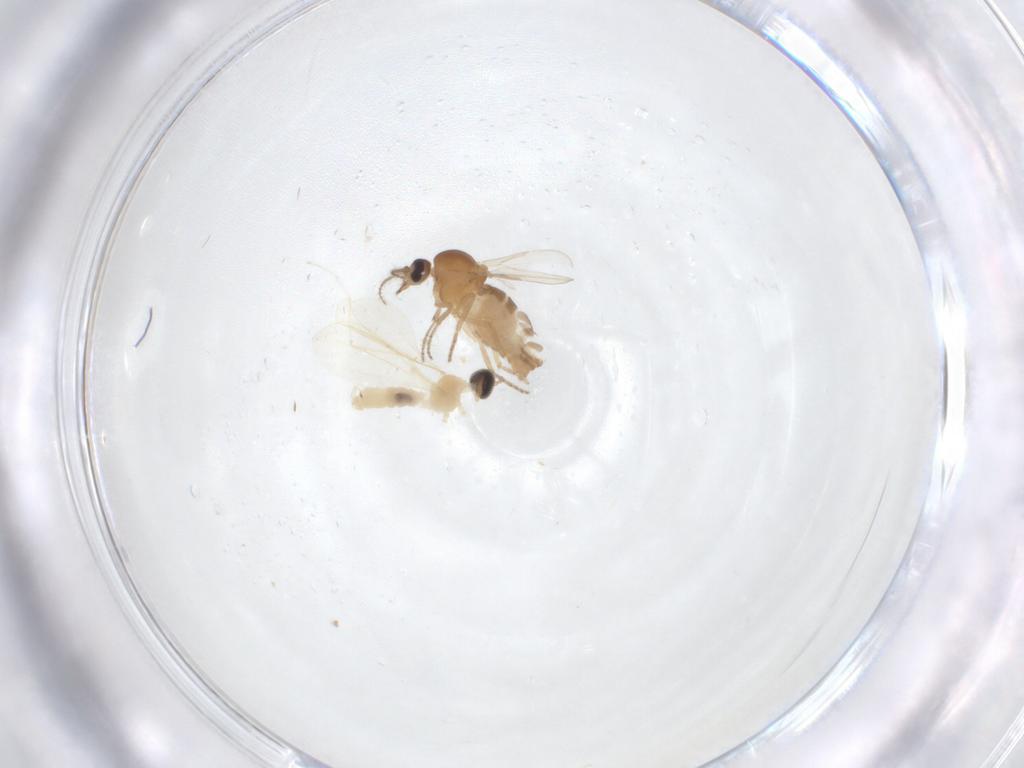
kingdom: Animalia
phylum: Arthropoda
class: Insecta
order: Diptera
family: Ceratopogonidae
